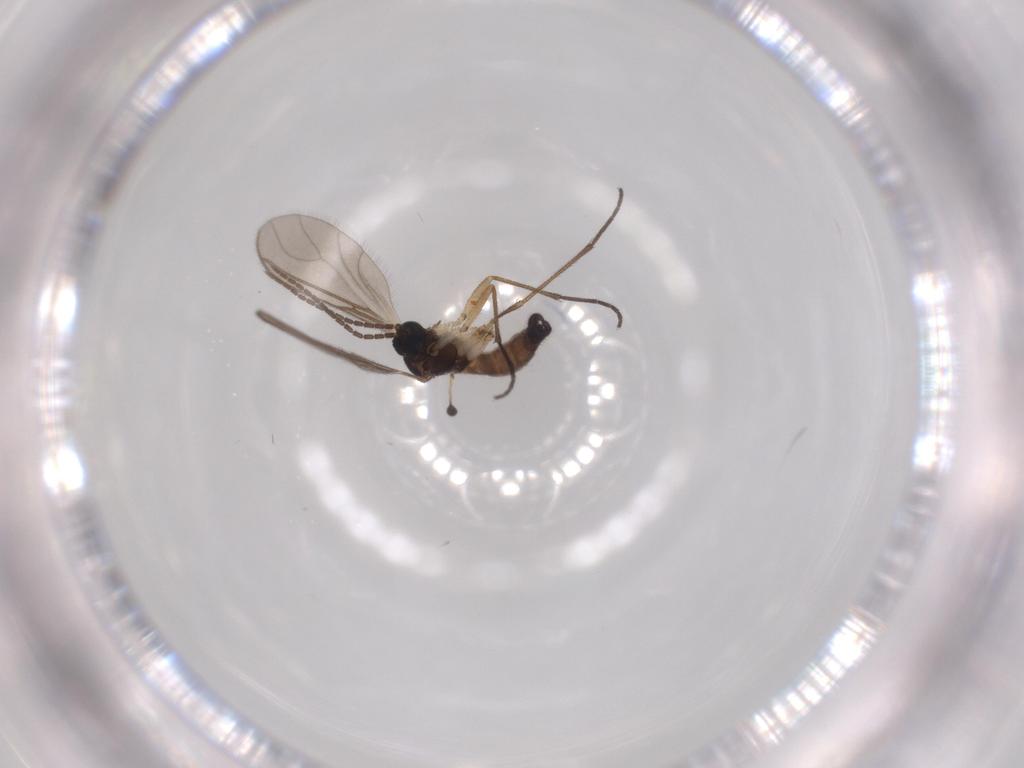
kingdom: Animalia
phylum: Arthropoda
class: Insecta
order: Diptera
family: Sciaridae
